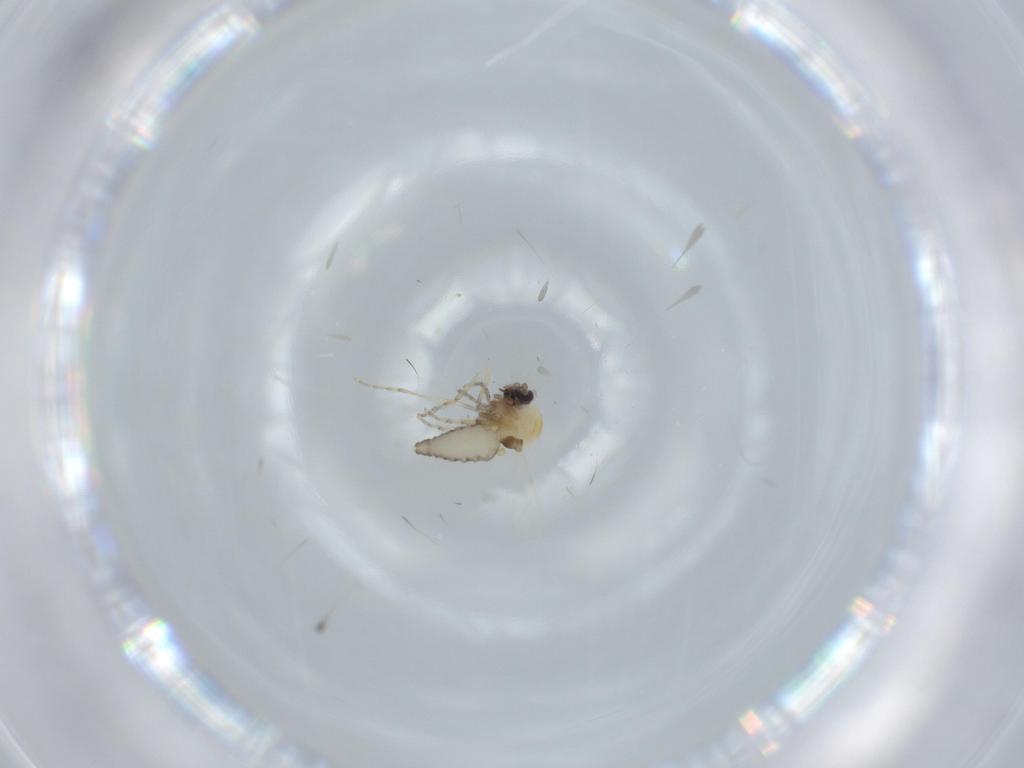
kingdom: Animalia
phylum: Arthropoda
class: Insecta
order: Diptera
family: Ceratopogonidae
